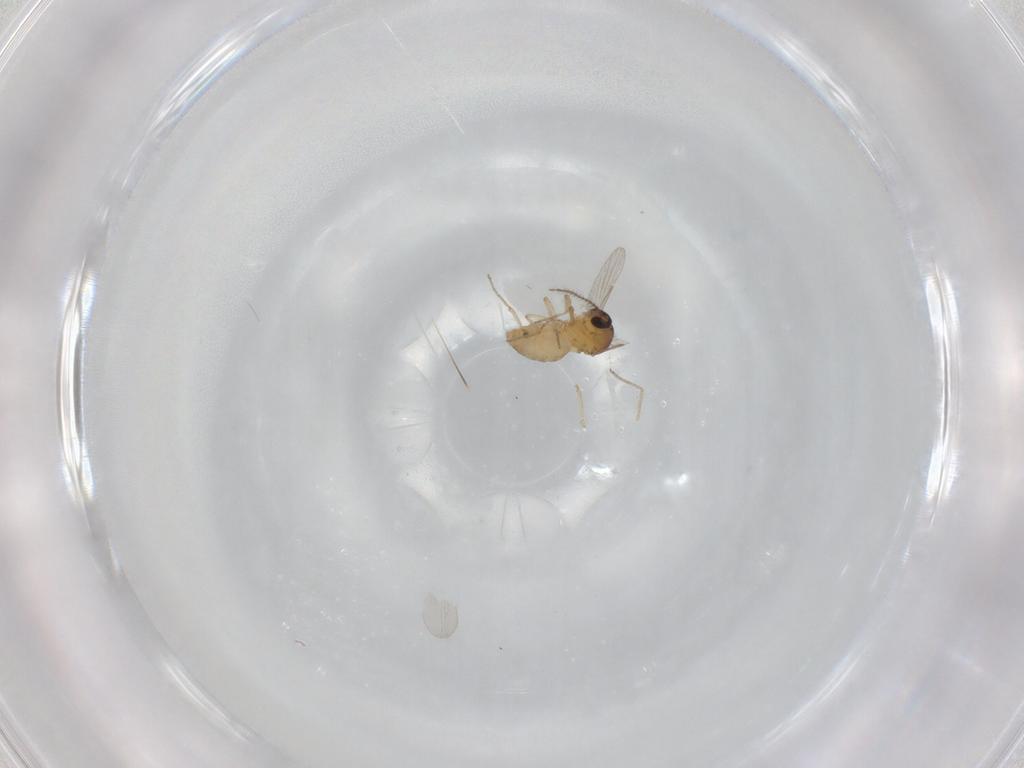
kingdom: Animalia
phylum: Arthropoda
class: Insecta
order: Diptera
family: Ceratopogonidae
